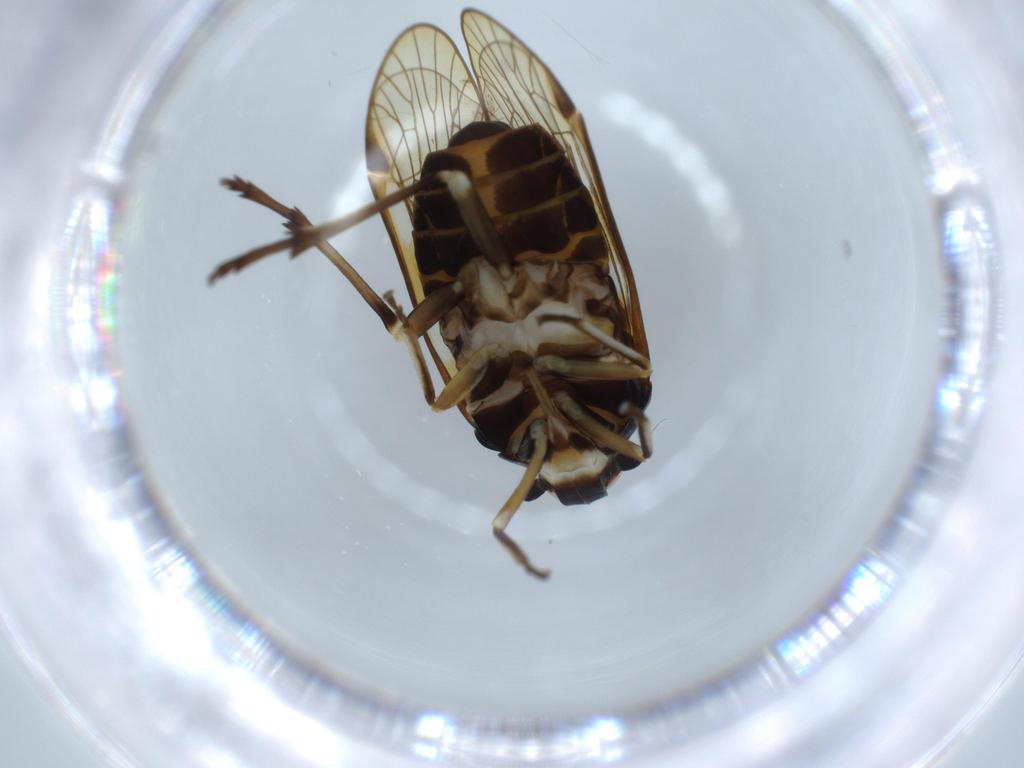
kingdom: Animalia
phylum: Arthropoda
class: Insecta
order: Hemiptera
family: Kinnaridae
